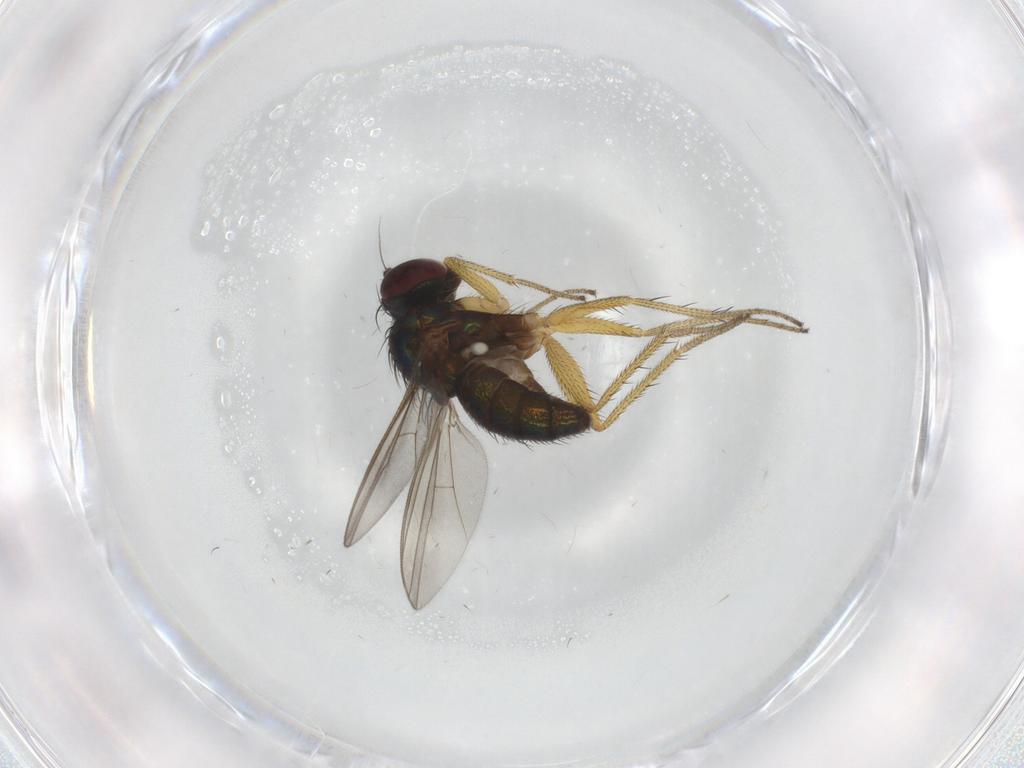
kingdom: Animalia
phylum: Arthropoda
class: Insecta
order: Diptera
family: Dolichopodidae
